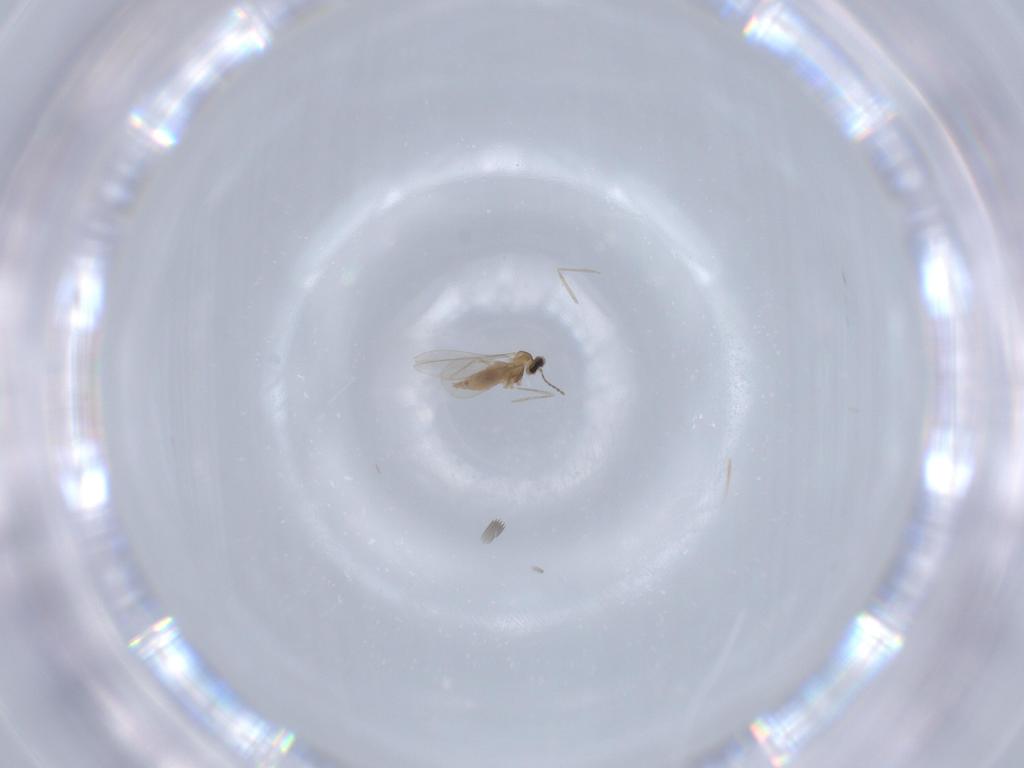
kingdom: Animalia
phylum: Arthropoda
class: Insecta
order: Diptera
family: Cecidomyiidae
